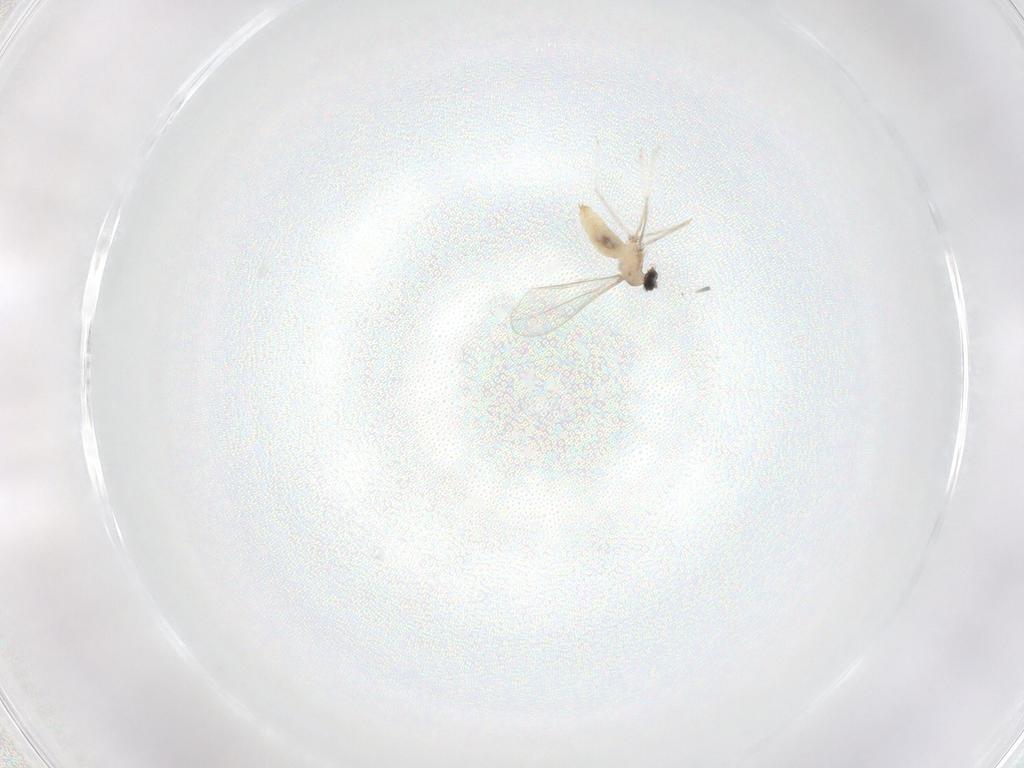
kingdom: Animalia
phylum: Arthropoda
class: Insecta
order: Diptera
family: Cecidomyiidae
